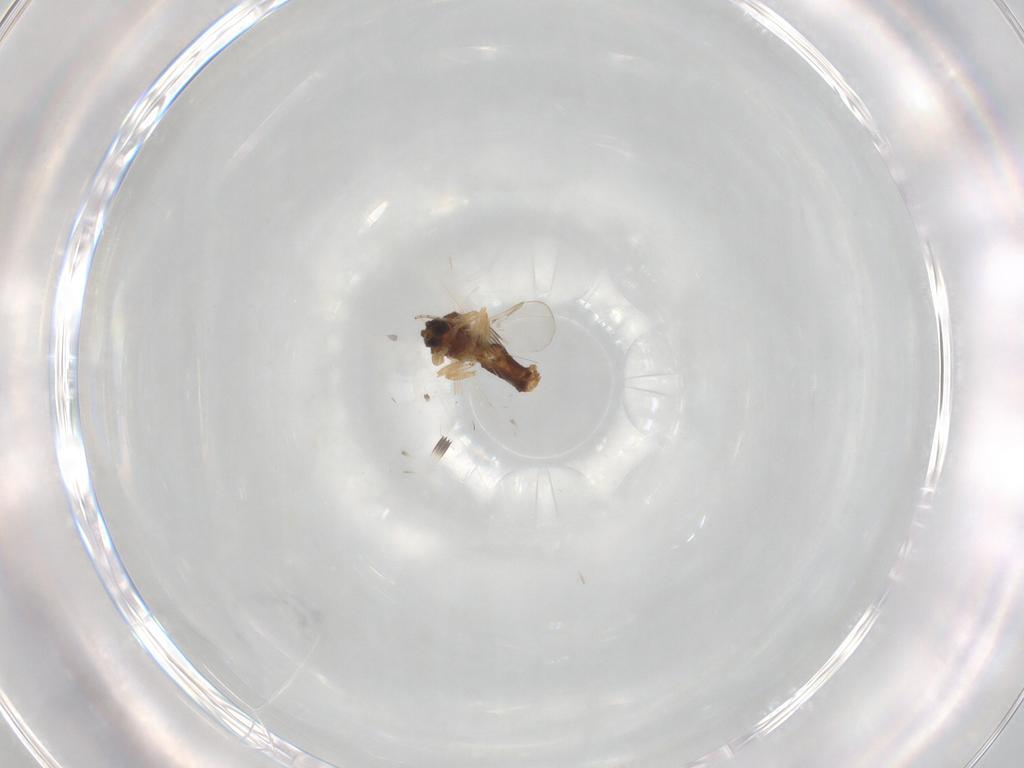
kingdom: Animalia
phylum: Arthropoda
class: Insecta
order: Diptera
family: Ceratopogonidae
